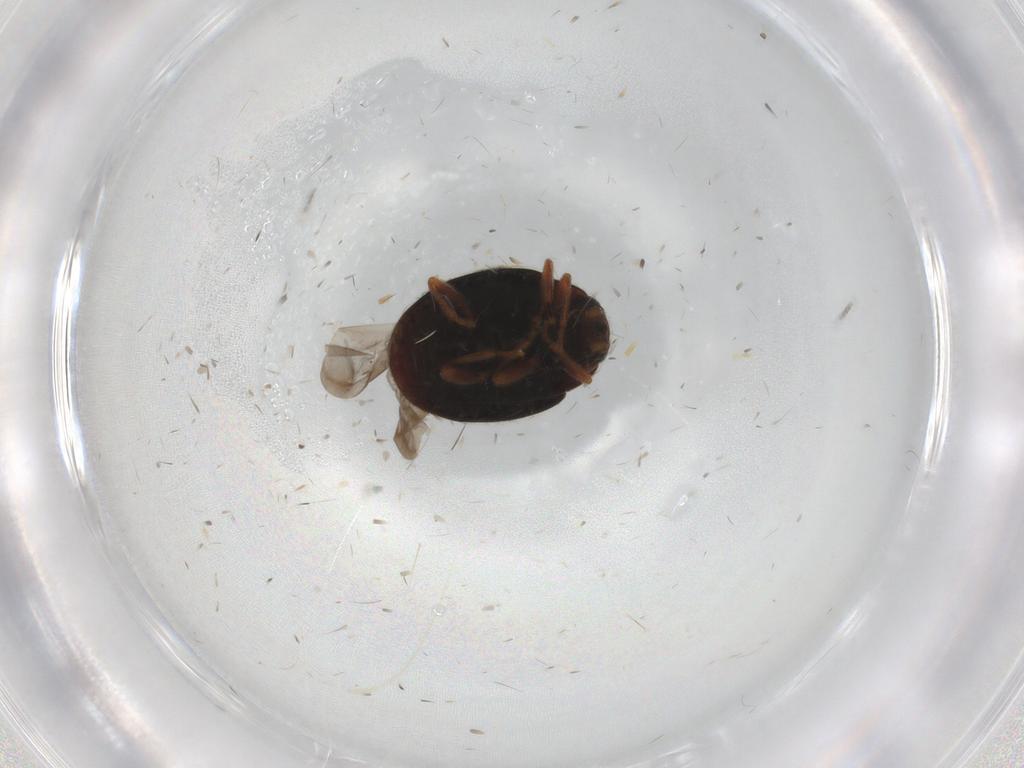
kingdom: Animalia
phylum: Arthropoda
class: Insecta
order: Coleoptera
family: Coccinellidae
